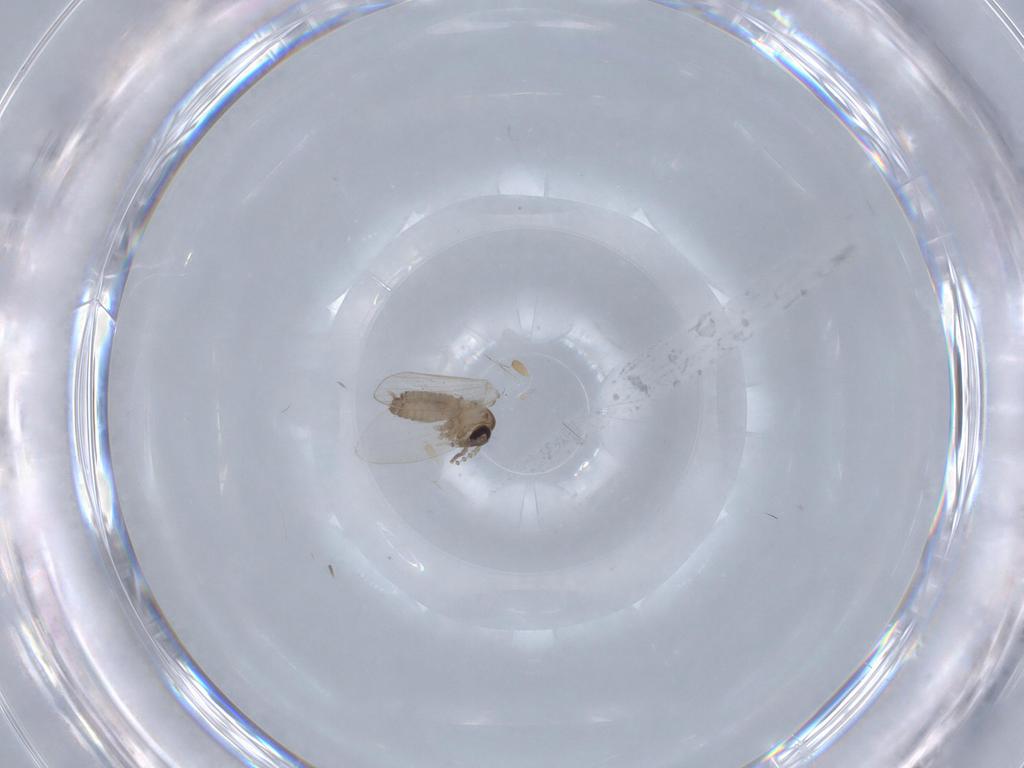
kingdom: Animalia
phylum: Arthropoda
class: Insecta
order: Diptera
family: Psychodidae
